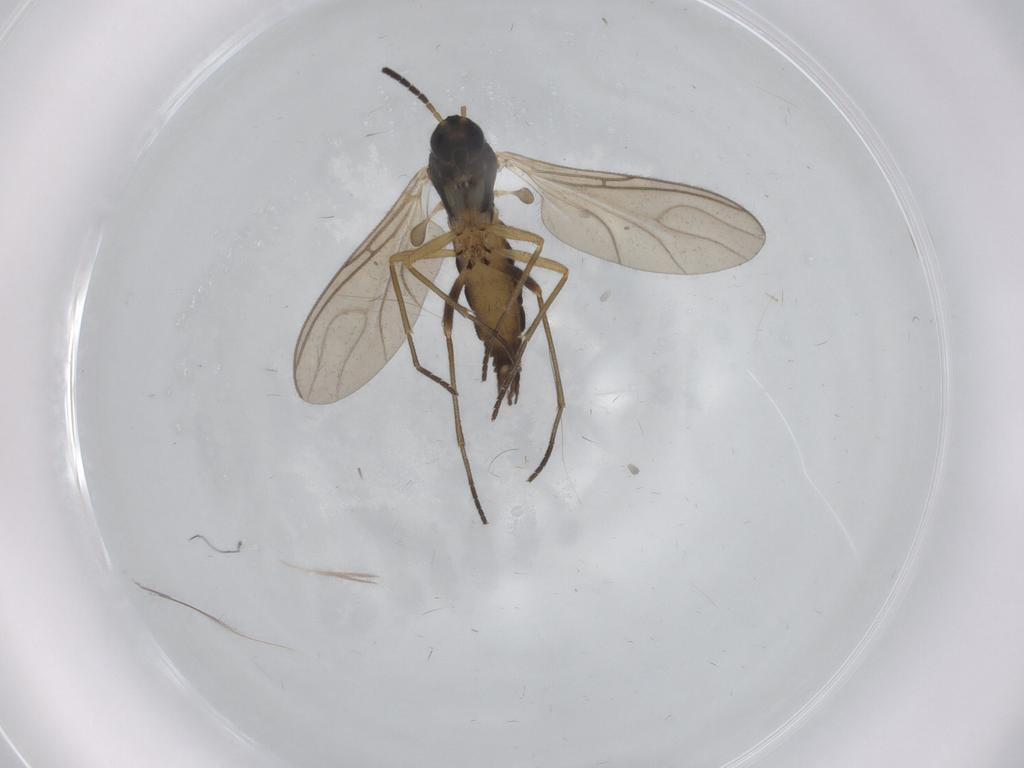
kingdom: Animalia
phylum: Arthropoda
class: Insecta
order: Diptera
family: Sciaridae
